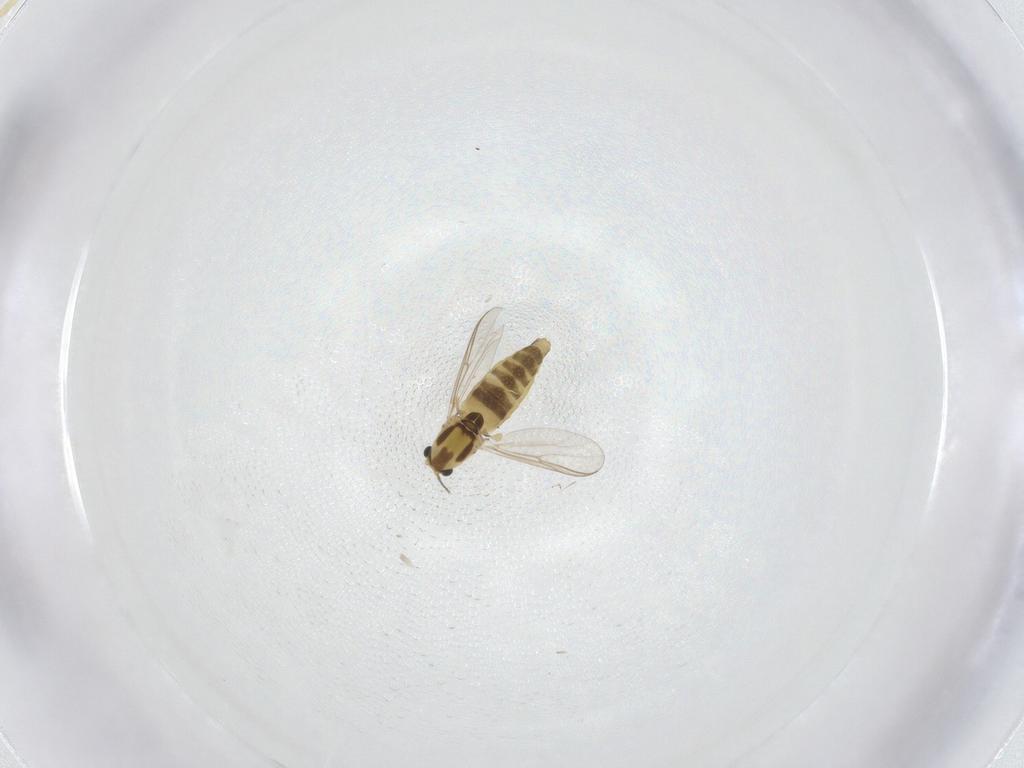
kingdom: Animalia
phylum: Arthropoda
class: Insecta
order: Diptera
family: Chironomidae
